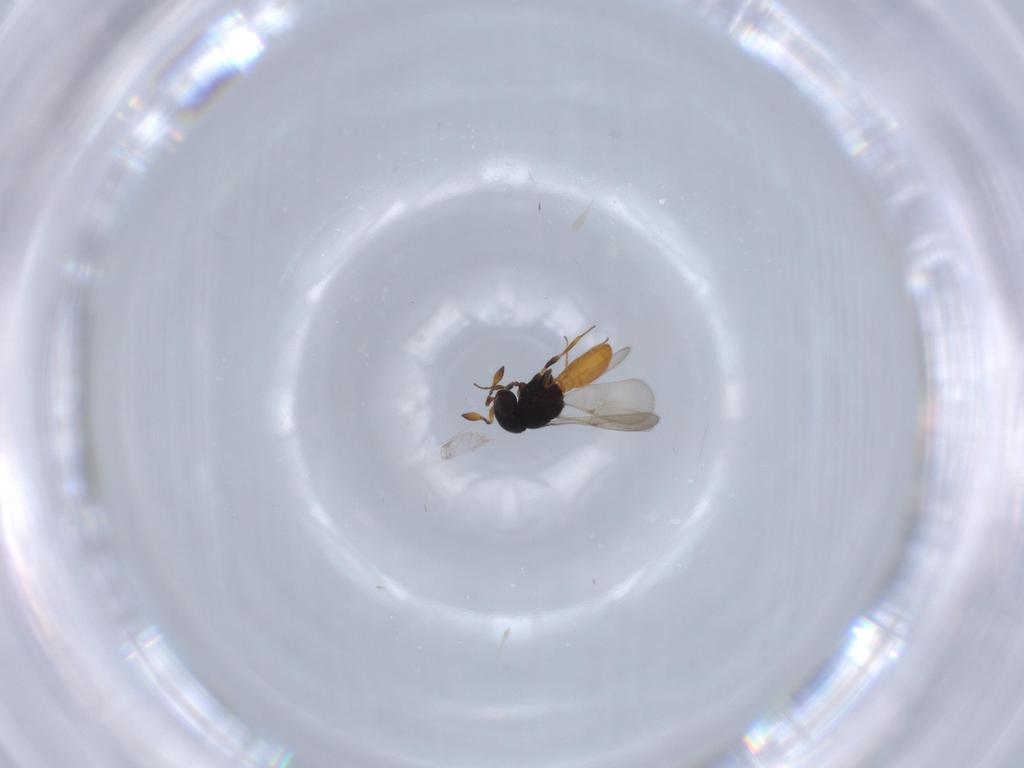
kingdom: Animalia
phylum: Arthropoda
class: Insecta
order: Hymenoptera
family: Scelionidae
